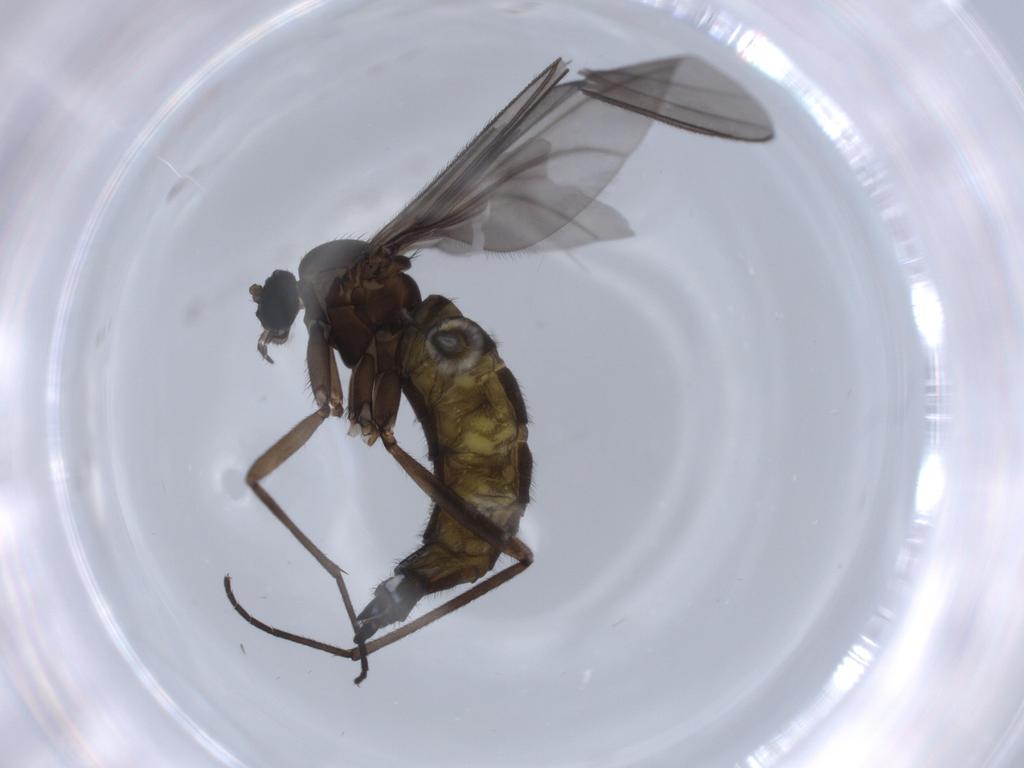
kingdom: Animalia
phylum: Arthropoda
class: Insecta
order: Diptera
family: Sciaridae
